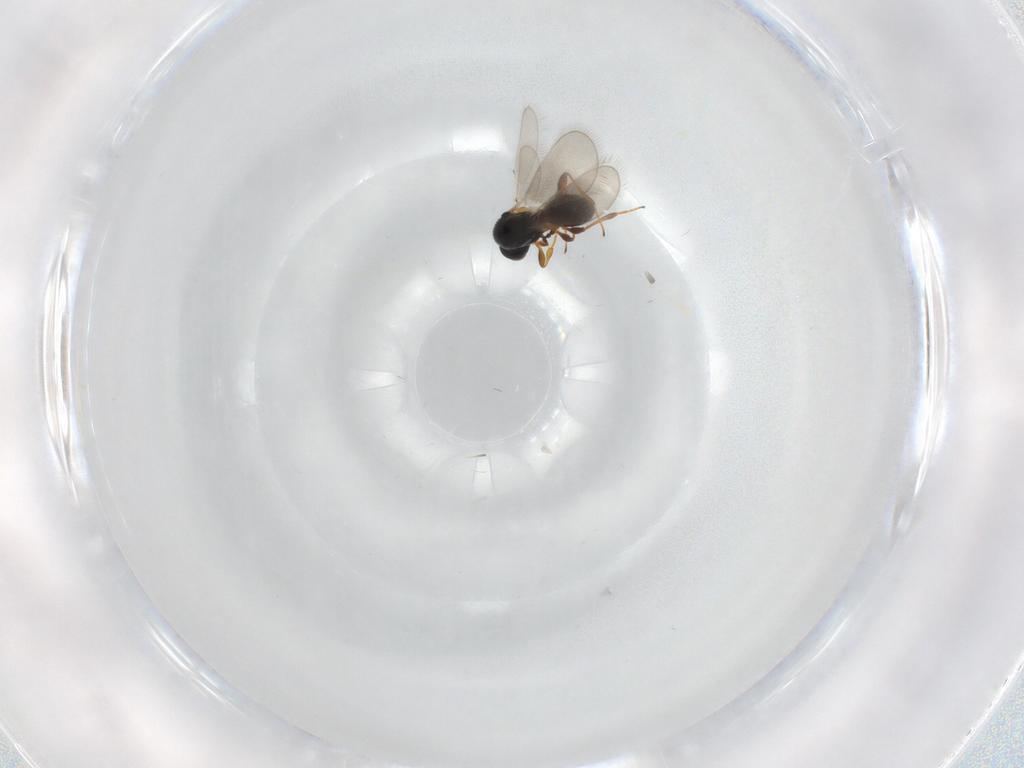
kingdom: Animalia
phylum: Arthropoda
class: Insecta
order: Hymenoptera
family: Platygastridae
